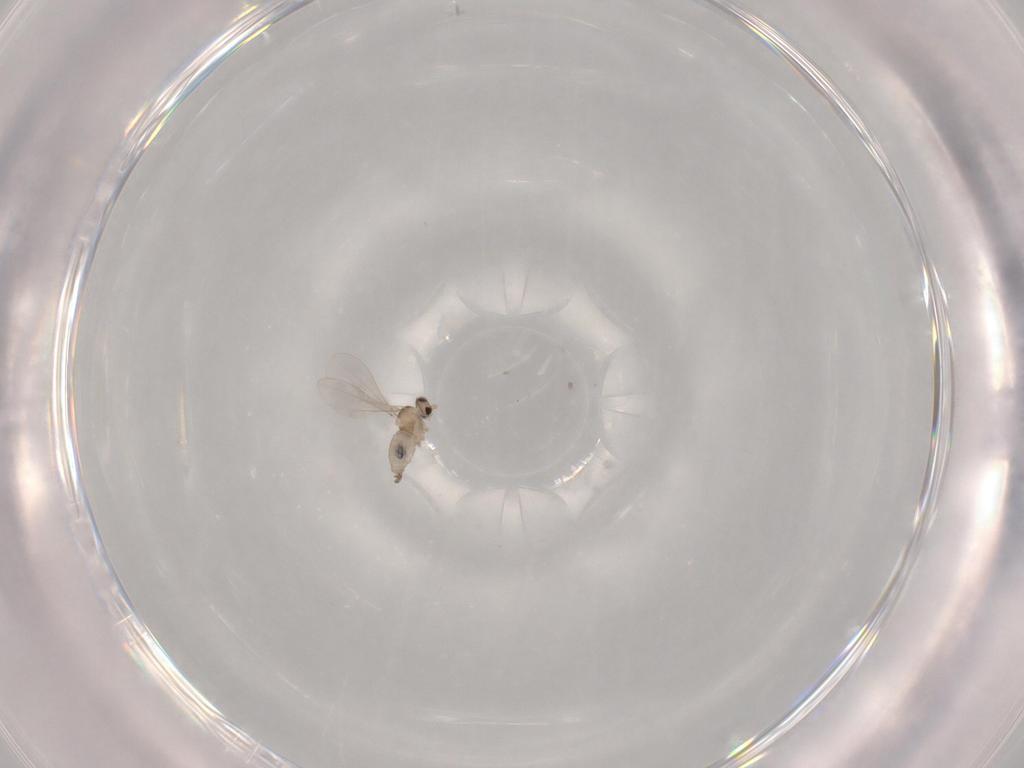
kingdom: Animalia
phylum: Arthropoda
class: Insecta
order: Diptera
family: Cecidomyiidae
